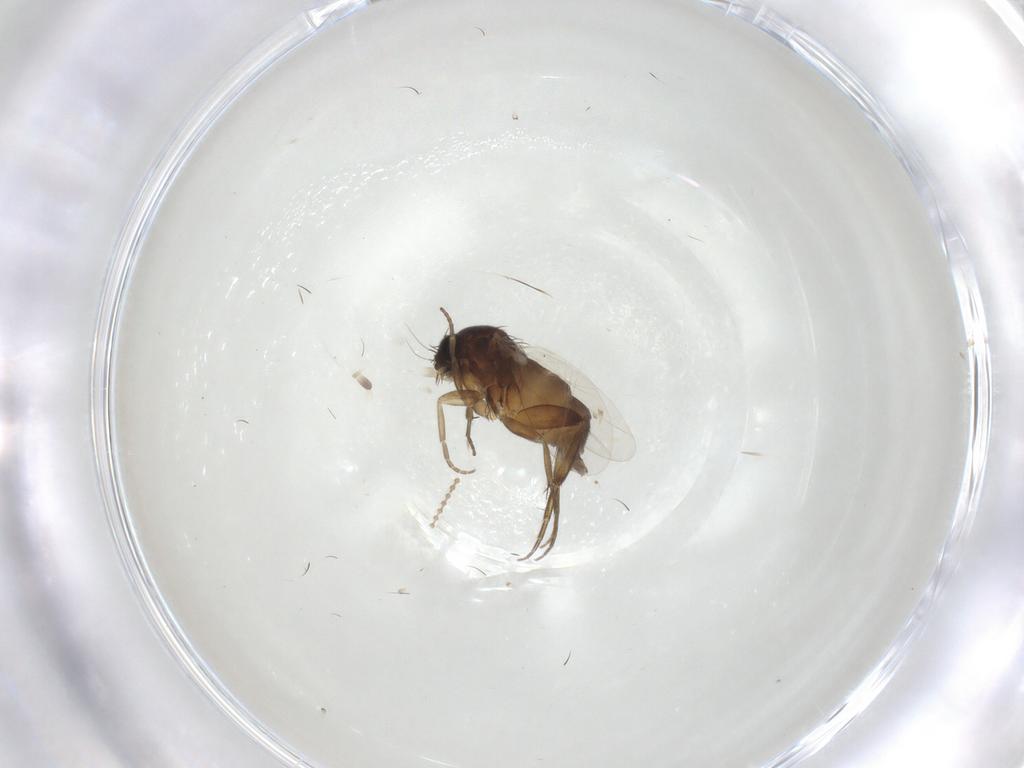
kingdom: Animalia
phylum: Arthropoda
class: Insecta
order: Diptera
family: Phoridae
